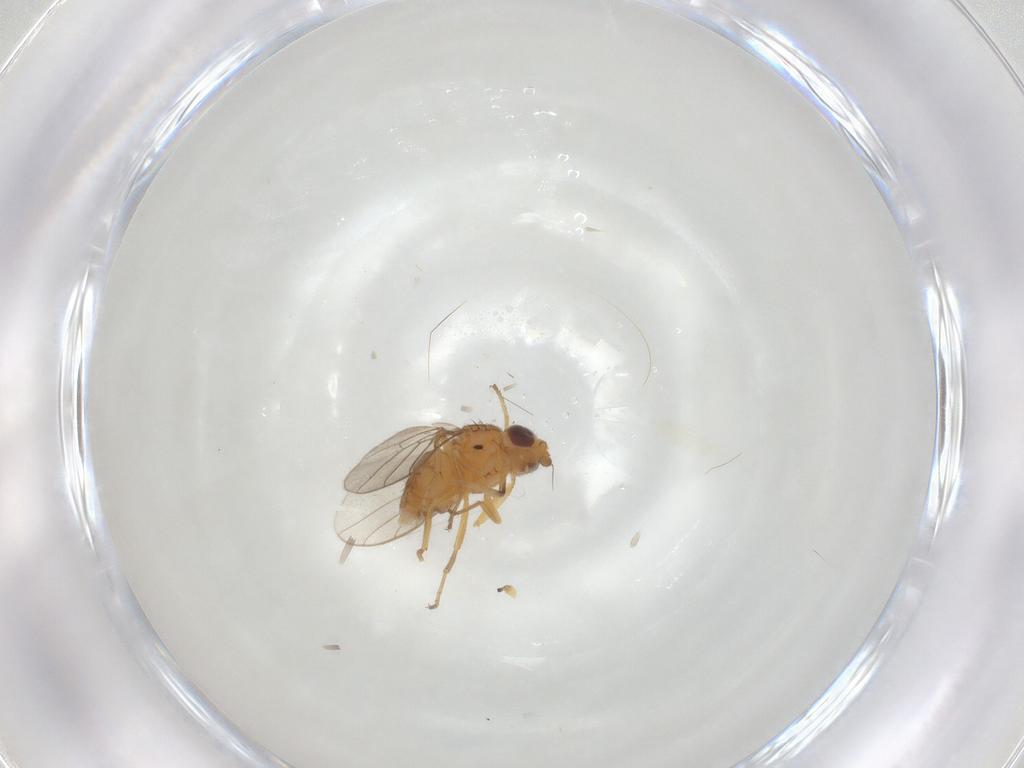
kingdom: Animalia
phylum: Arthropoda
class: Insecta
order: Diptera
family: Chloropidae
